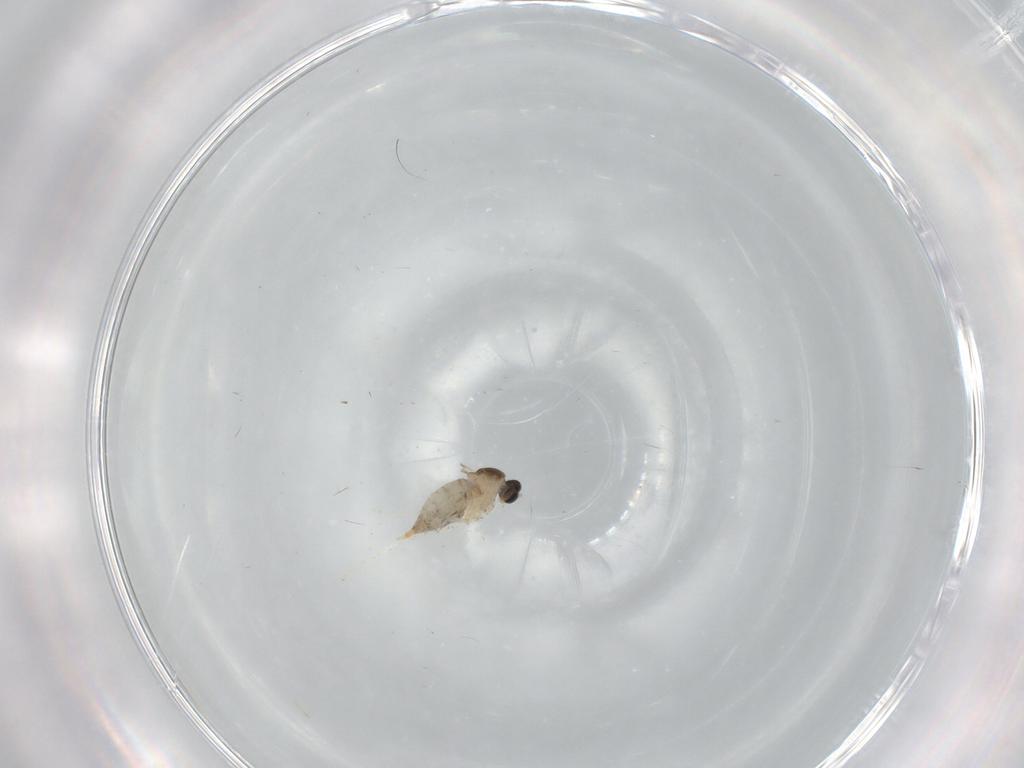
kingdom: Animalia
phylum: Arthropoda
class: Insecta
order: Diptera
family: Cecidomyiidae
